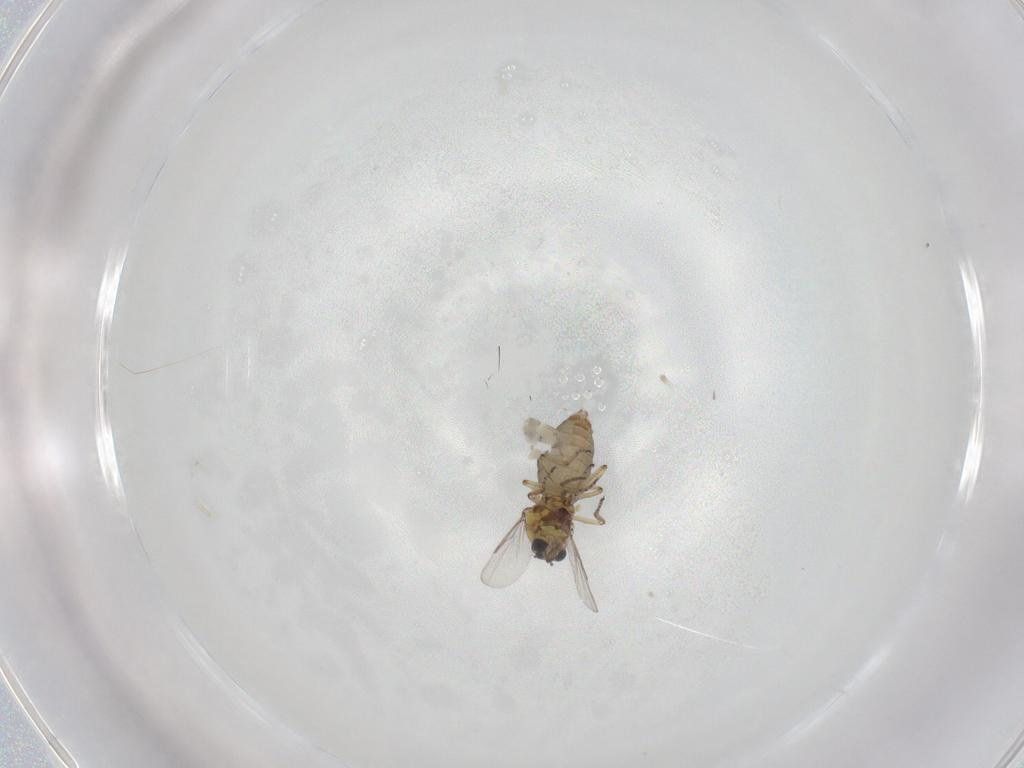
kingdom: Animalia
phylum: Arthropoda
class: Insecta
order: Diptera
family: Ceratopogonidae
